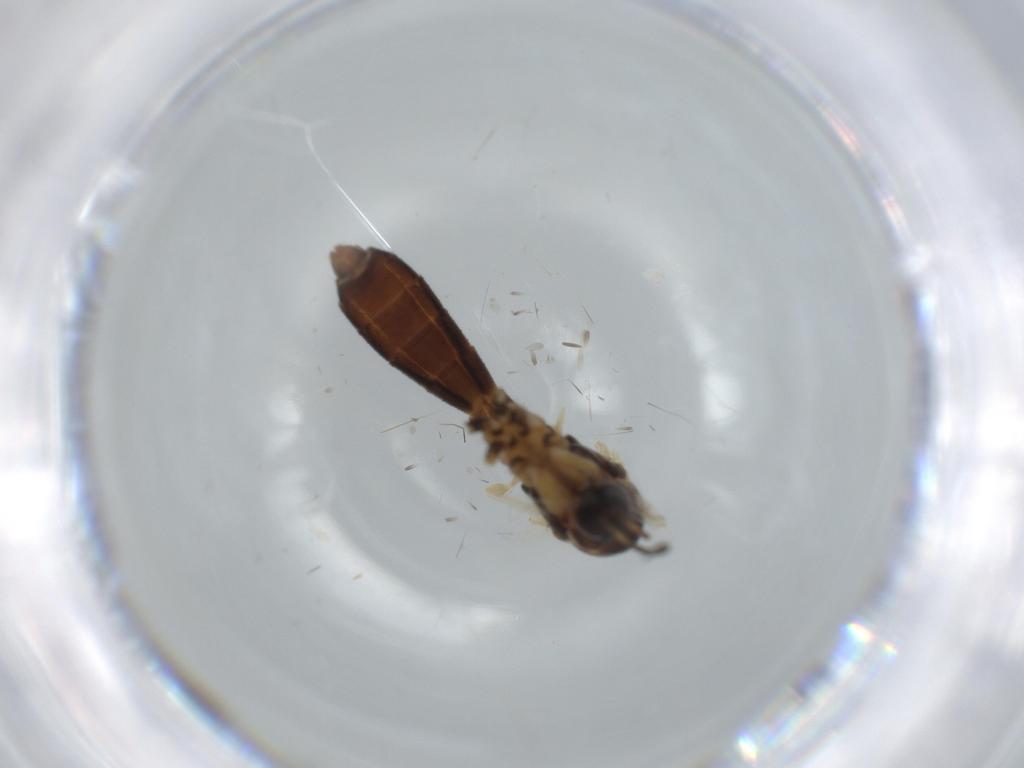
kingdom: Animalia
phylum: Arthropoda
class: Insecta
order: Diptera
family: Mycetophilidae
